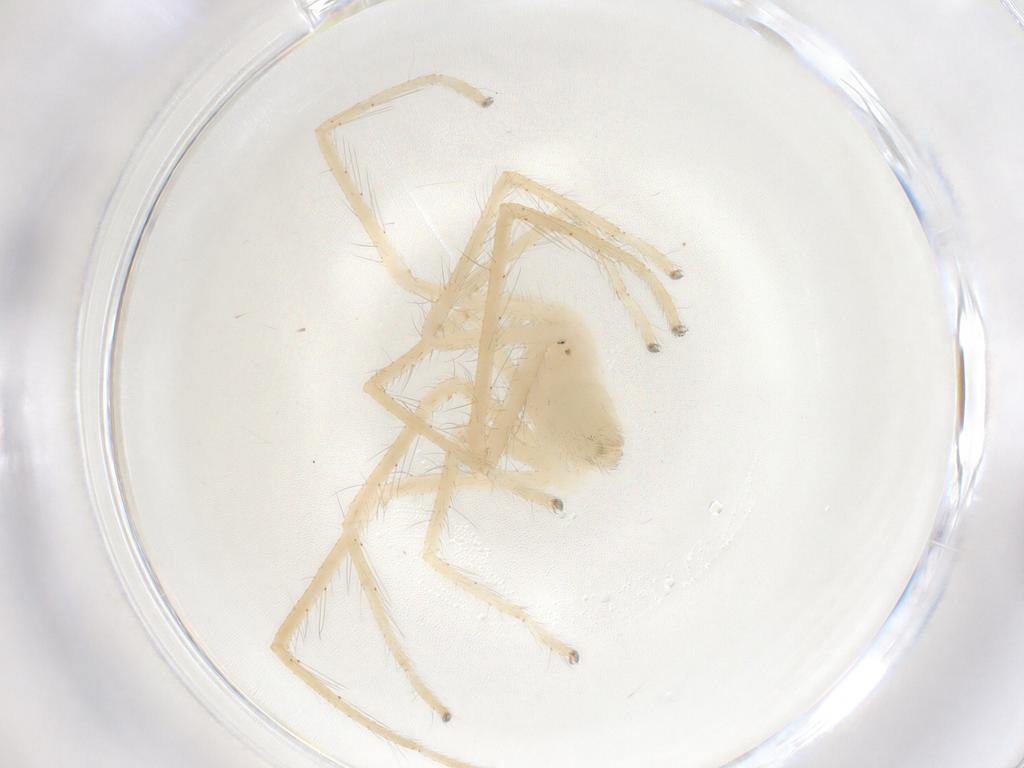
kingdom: Animalia
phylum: Arthropoda
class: Arachnida
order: Araneae
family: Sparassidae
